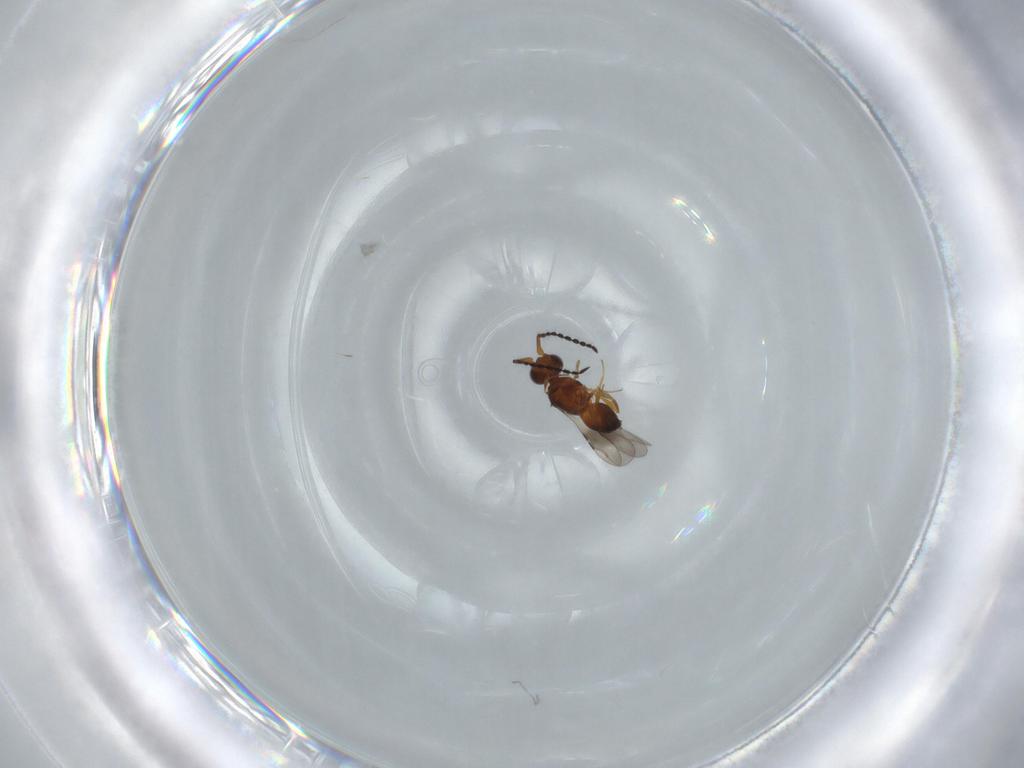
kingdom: Animalia
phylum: Arthropoda
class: Insecta
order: Hymenoptera
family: Ceraphronidae
